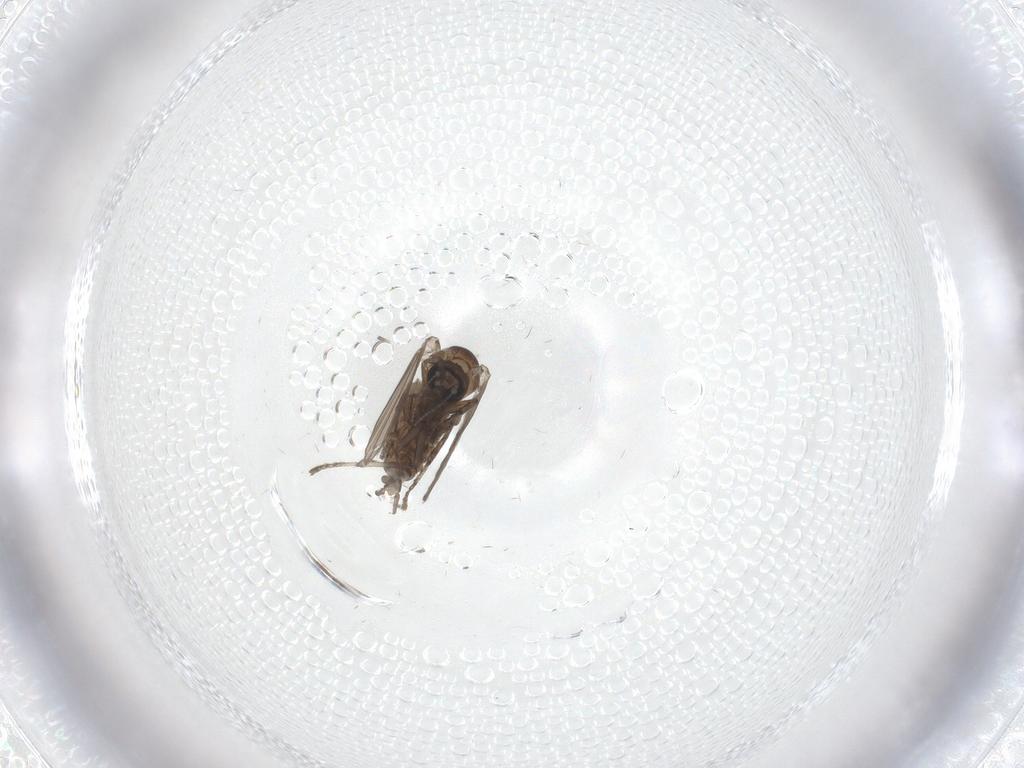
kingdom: Animalia
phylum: Arthropoda
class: Insecta
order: Diptera
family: Psychodidae
